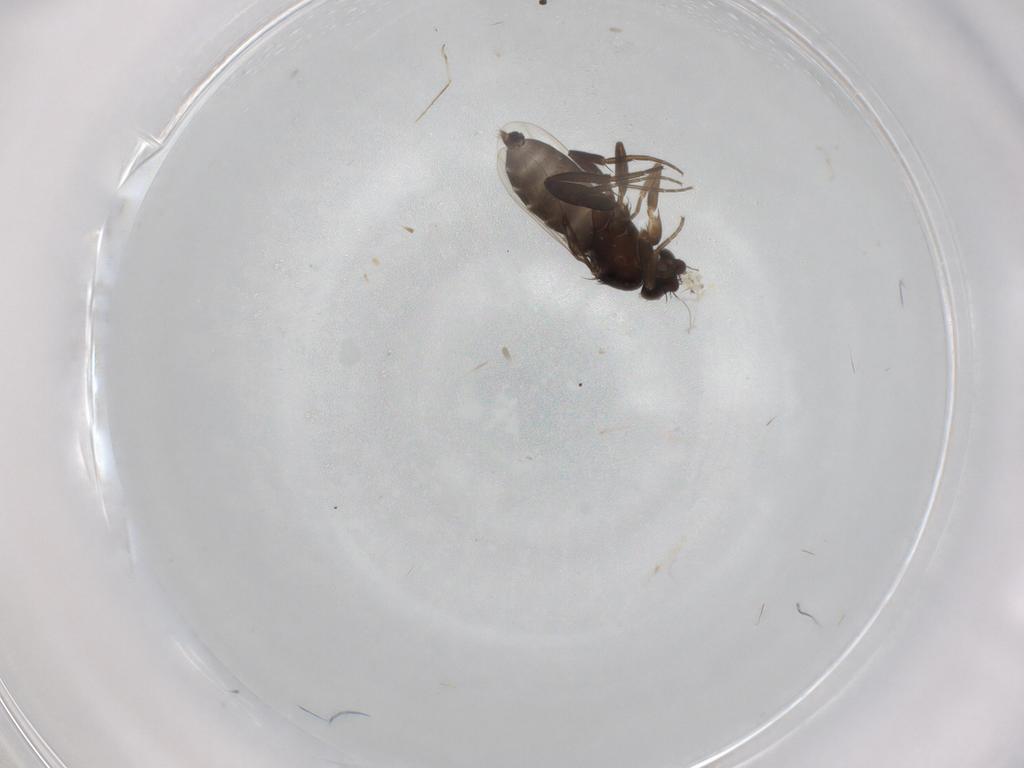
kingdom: Animalia
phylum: Arthropoda
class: Insecta
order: Diptera
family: Phoridae
